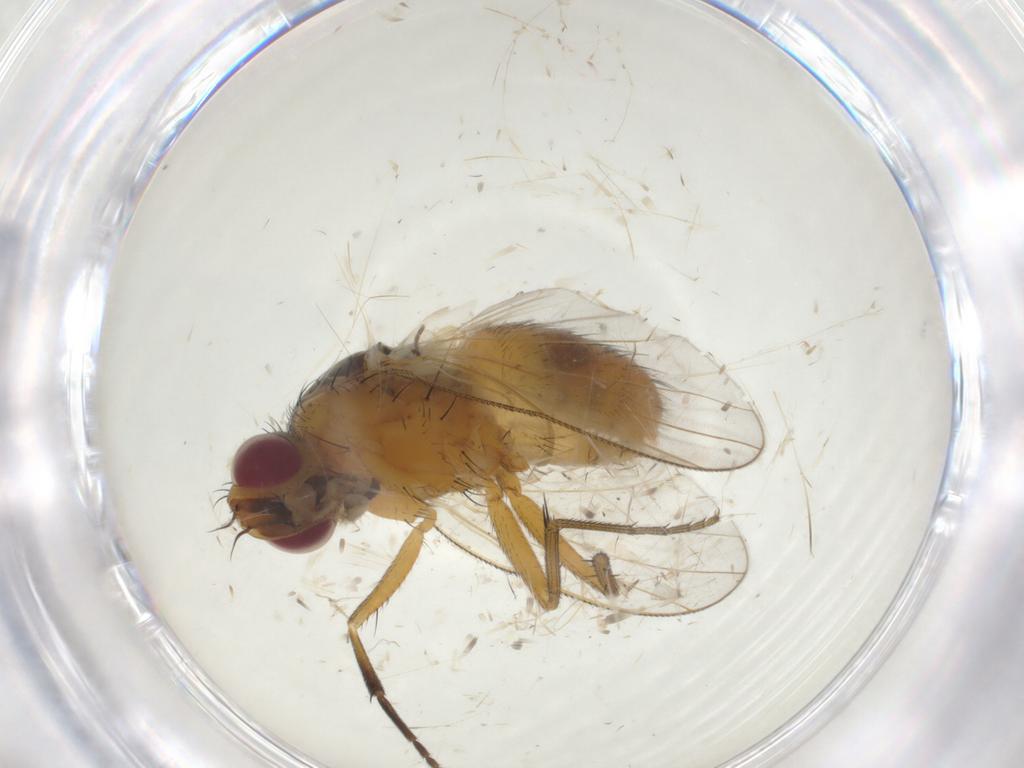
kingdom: Animalia
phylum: Arthropoda
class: Insecta
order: Diptera
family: Muscidae
